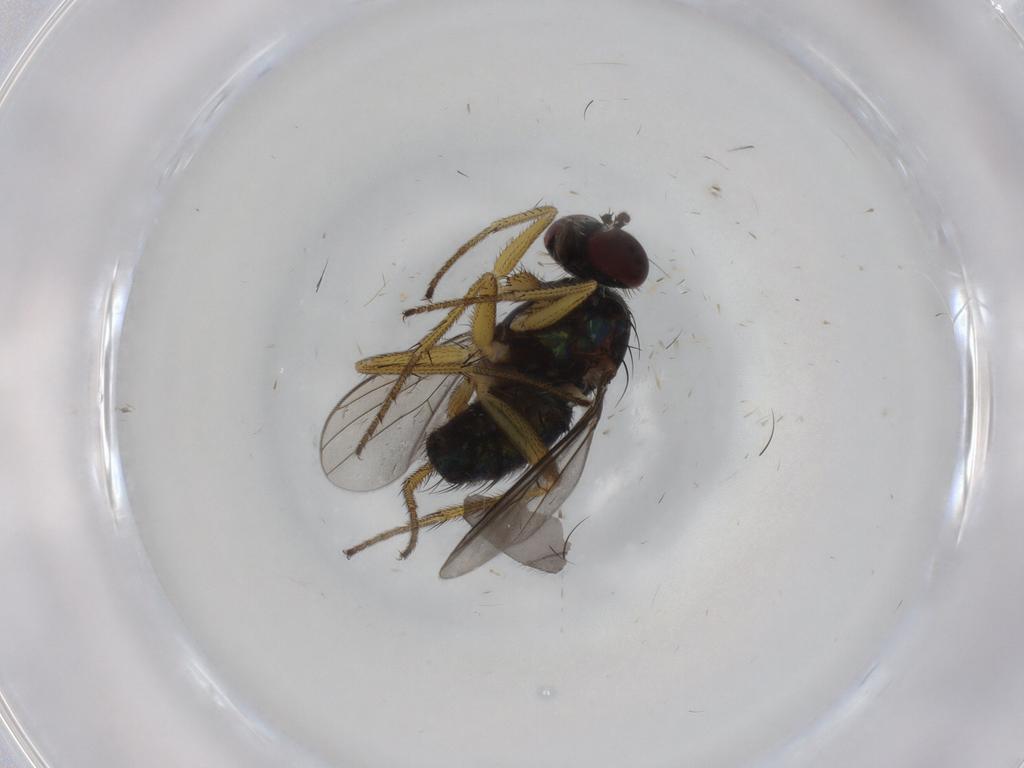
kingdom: Animalia
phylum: Arthropoda
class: Insecta
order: Diptera
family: Dolichopodidae
